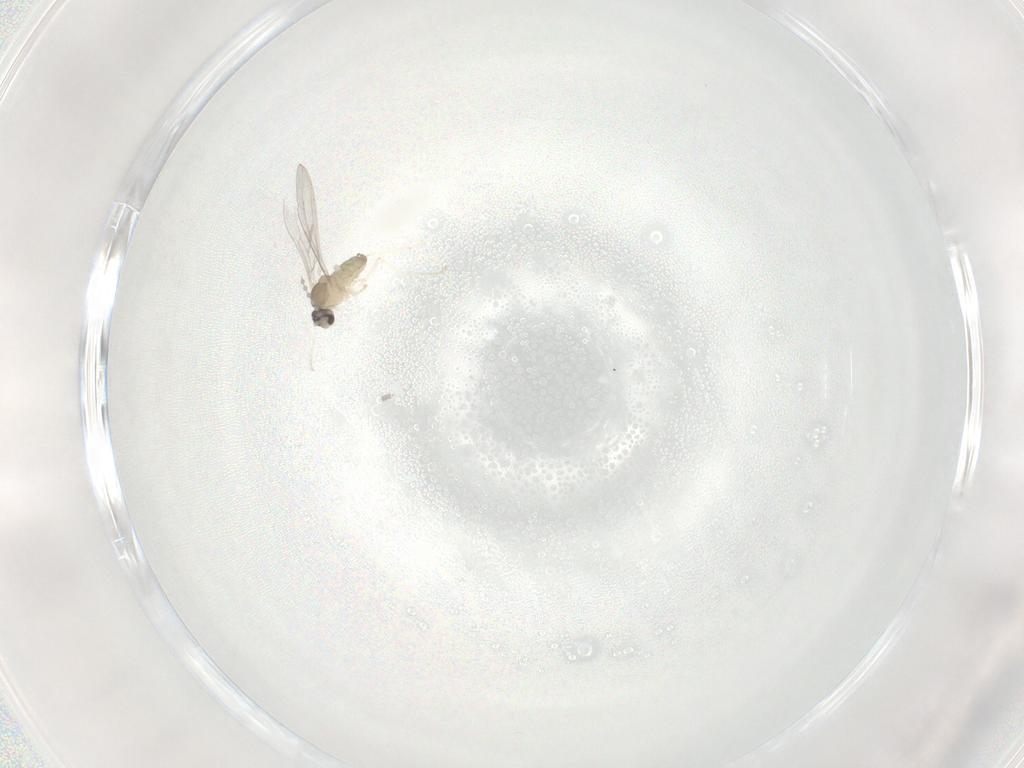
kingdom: Animalia
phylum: Arthropoda
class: Insecta
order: Diptera
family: Cecidomyiidae
